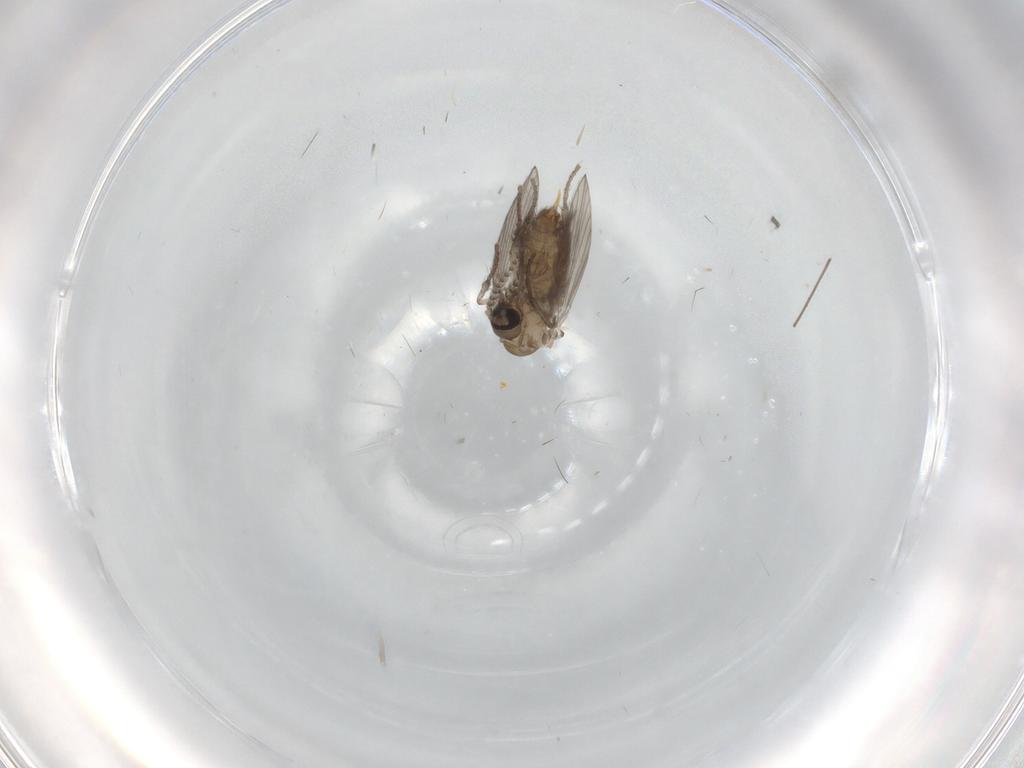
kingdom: Animalia
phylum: Arthropoda
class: Insecta
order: Diptera
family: Sciaridae
